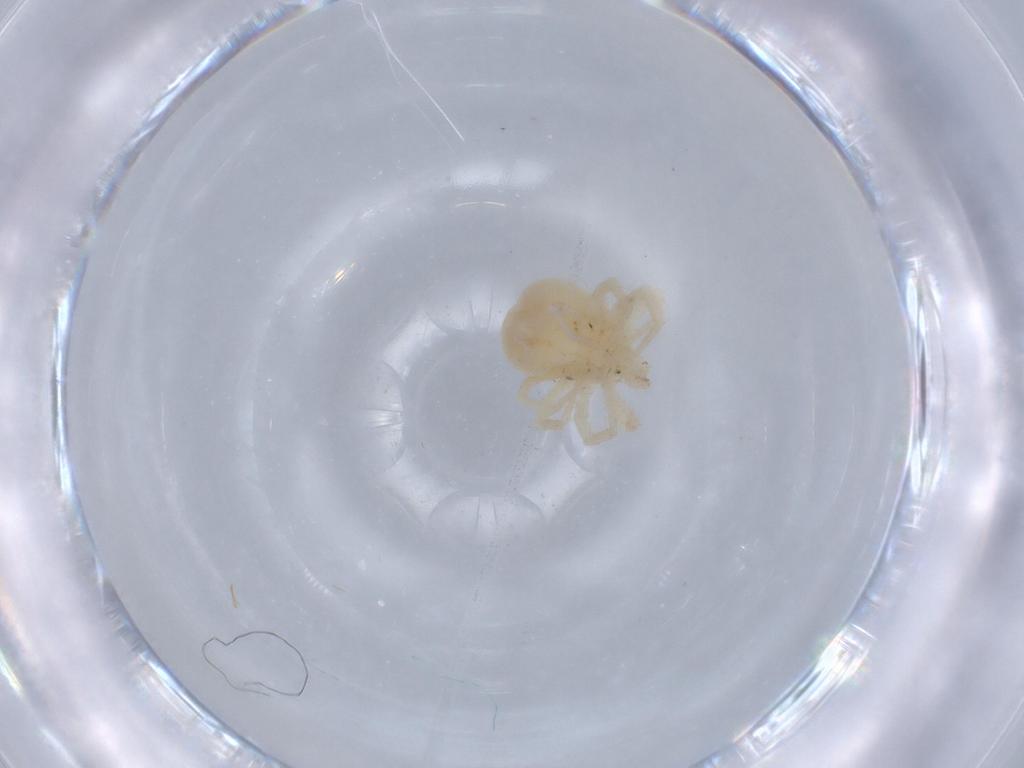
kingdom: Animalia
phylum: Arthropoda
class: Arachnida
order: Trombidiformes
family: Anystidae
